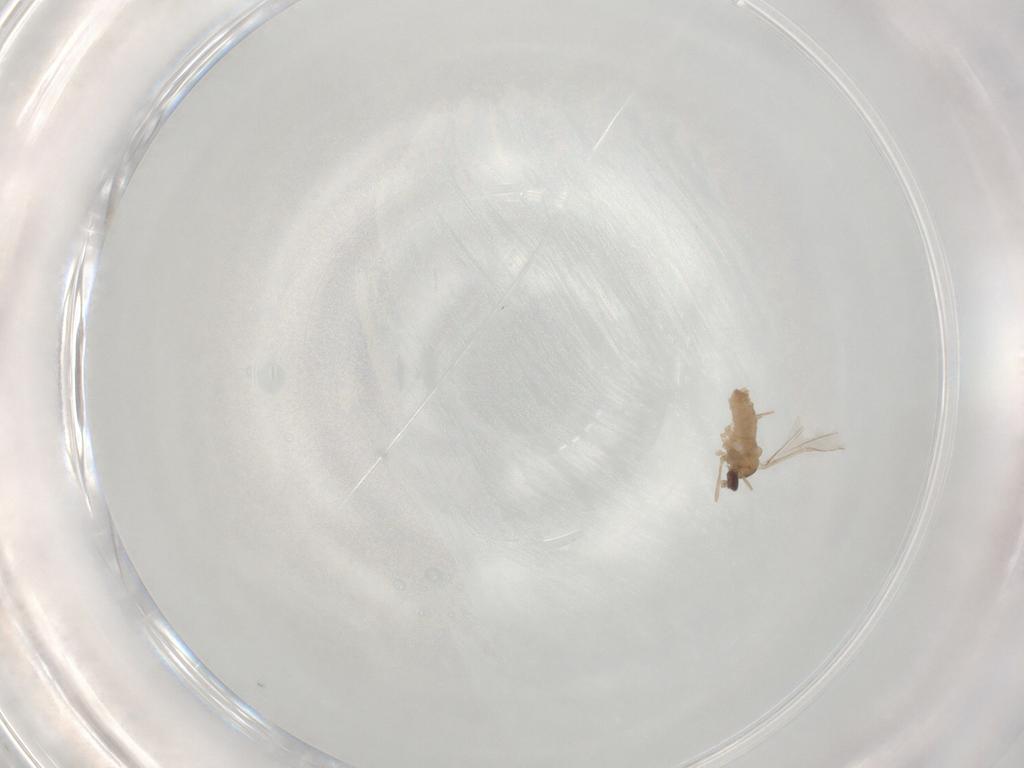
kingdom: Animalia
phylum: Arthropoda
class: Insecta
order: Diptera
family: Cecidomyiidae
